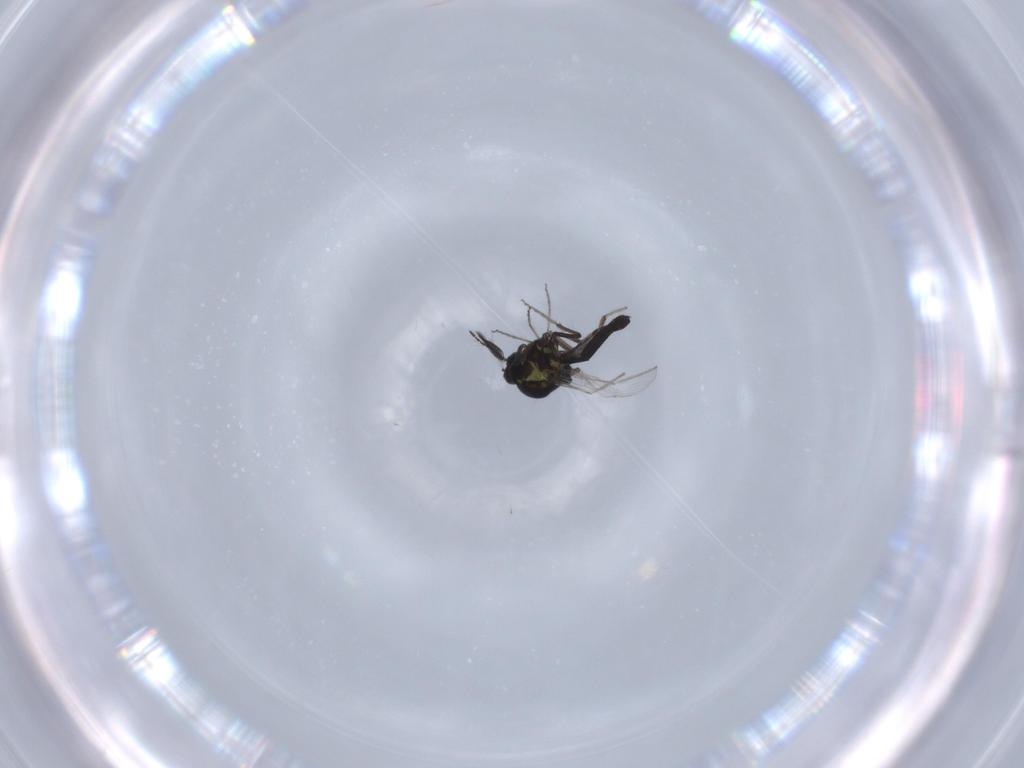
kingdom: Animalia
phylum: Arthropoda
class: Insecta
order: Diptera
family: Ceratopogonidae
